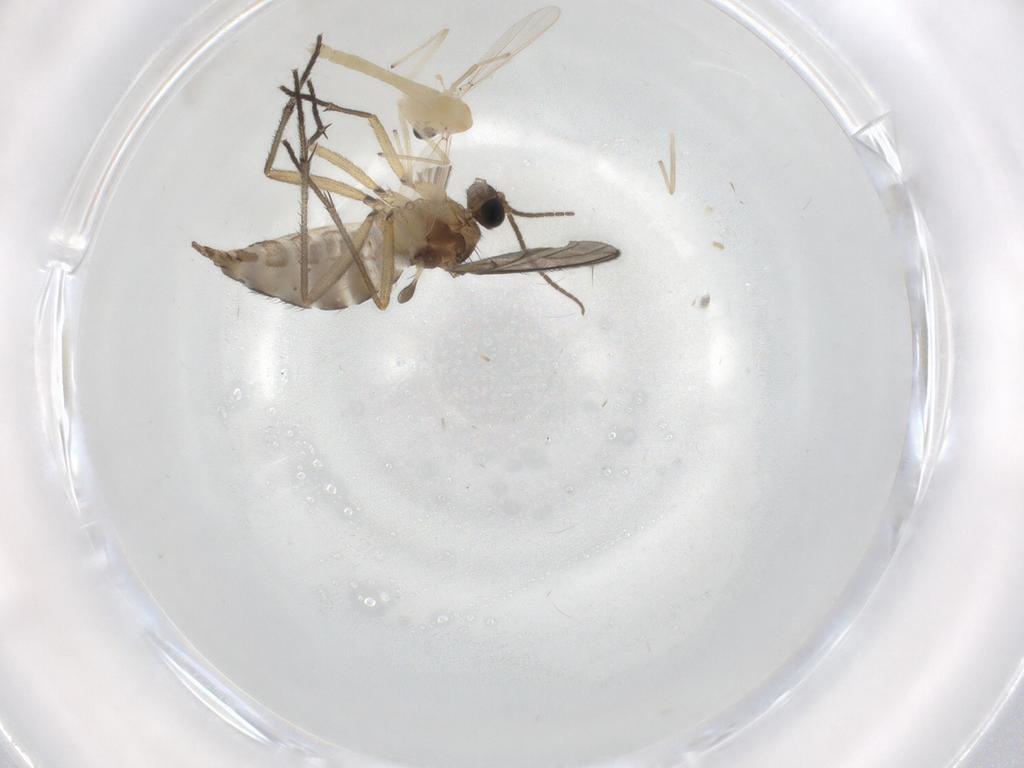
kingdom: Animalia
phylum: Arthropoda
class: Insecta
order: Diptera
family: Chironomidae
